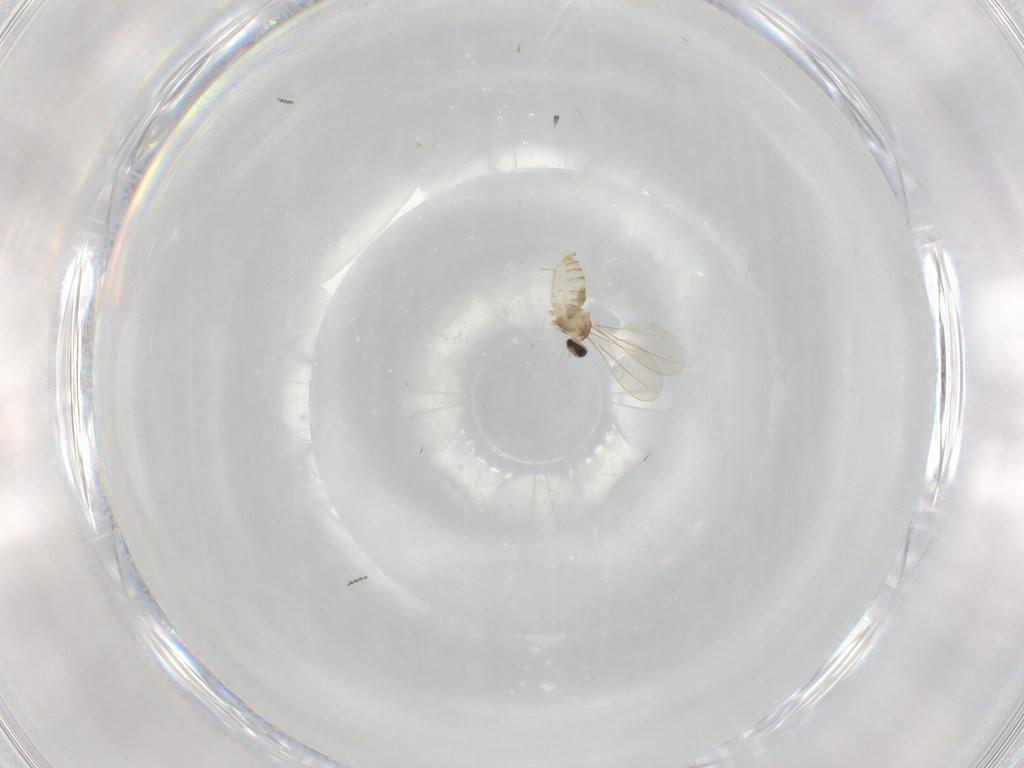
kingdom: Animalia
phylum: Arthropoda
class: Insecta
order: Diptera
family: Cecidomyiidae
